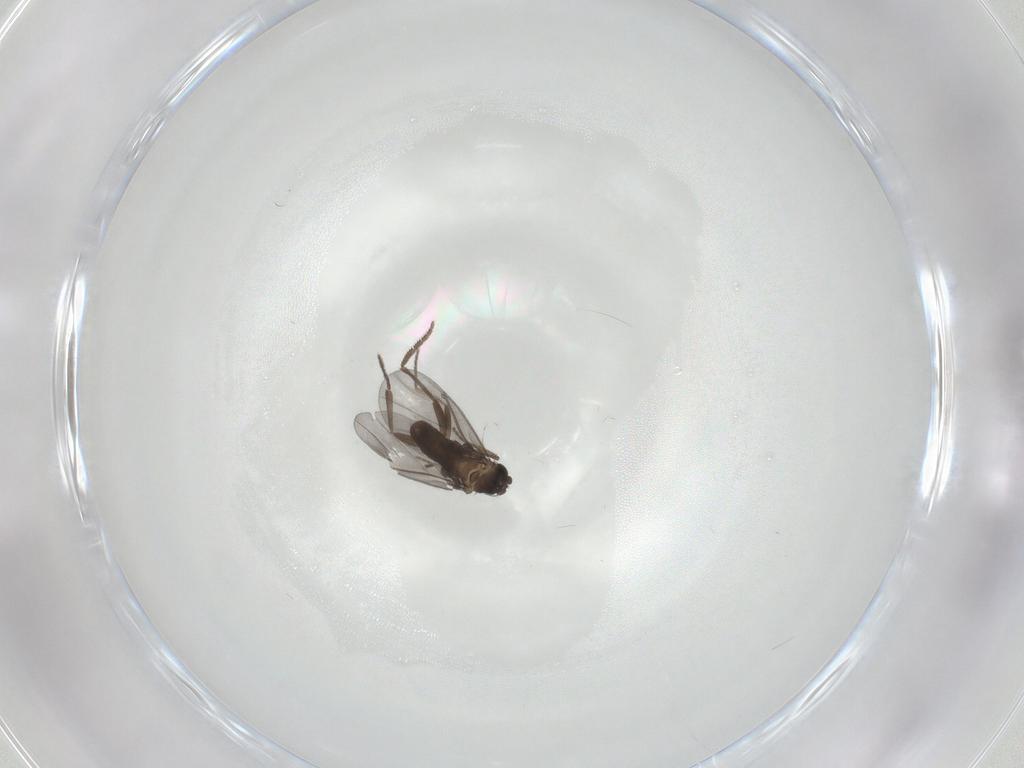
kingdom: Animalia
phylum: Arthropoda
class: Insecta
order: Diptera
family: Phoridae
